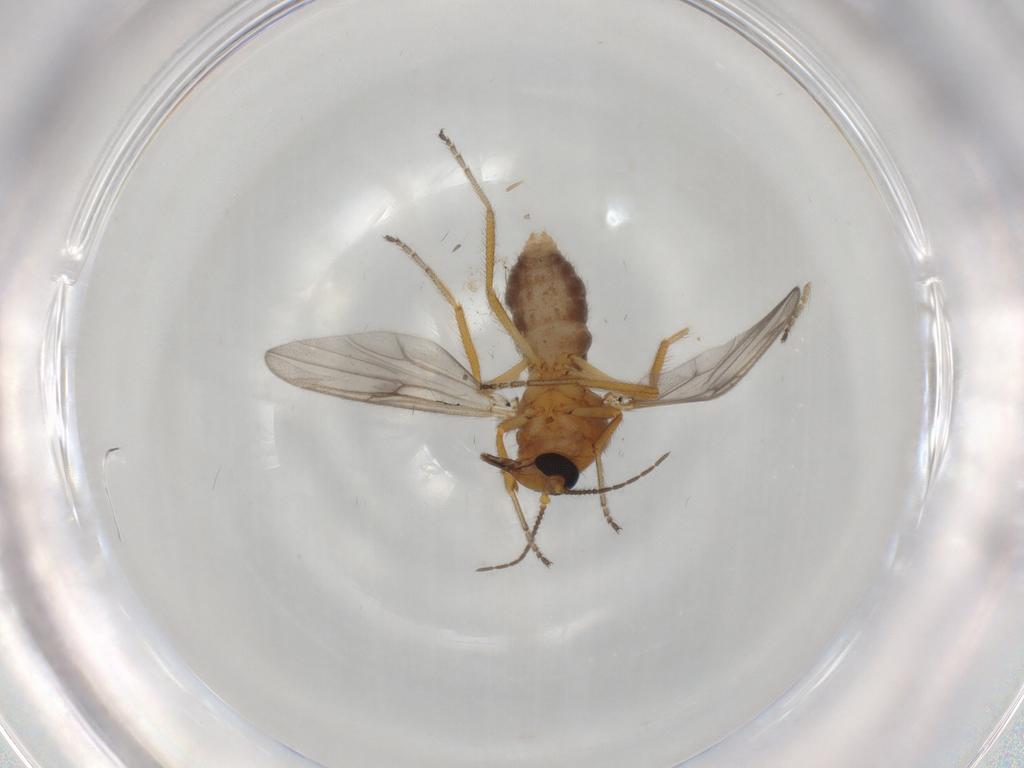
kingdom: Animalia
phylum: Arthropoda
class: Insecta
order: Diptera
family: Ceratopogonidae
